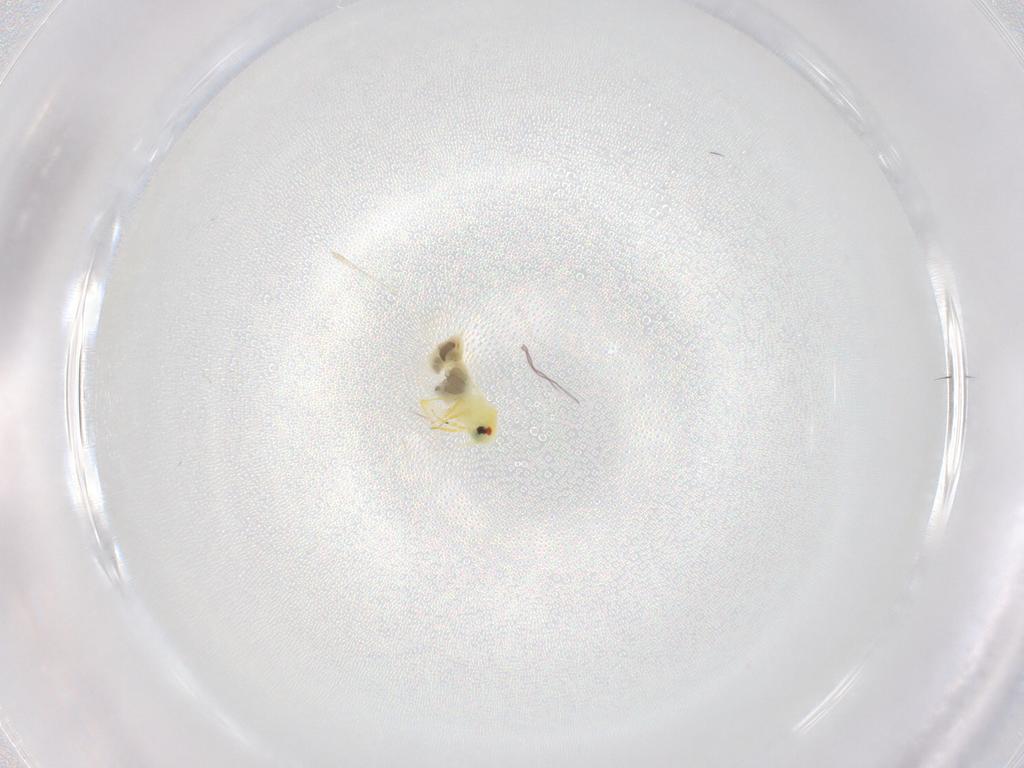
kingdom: Animalia
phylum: Arthropoda
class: Insecta
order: Hemiptera
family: Aleyrodidae
